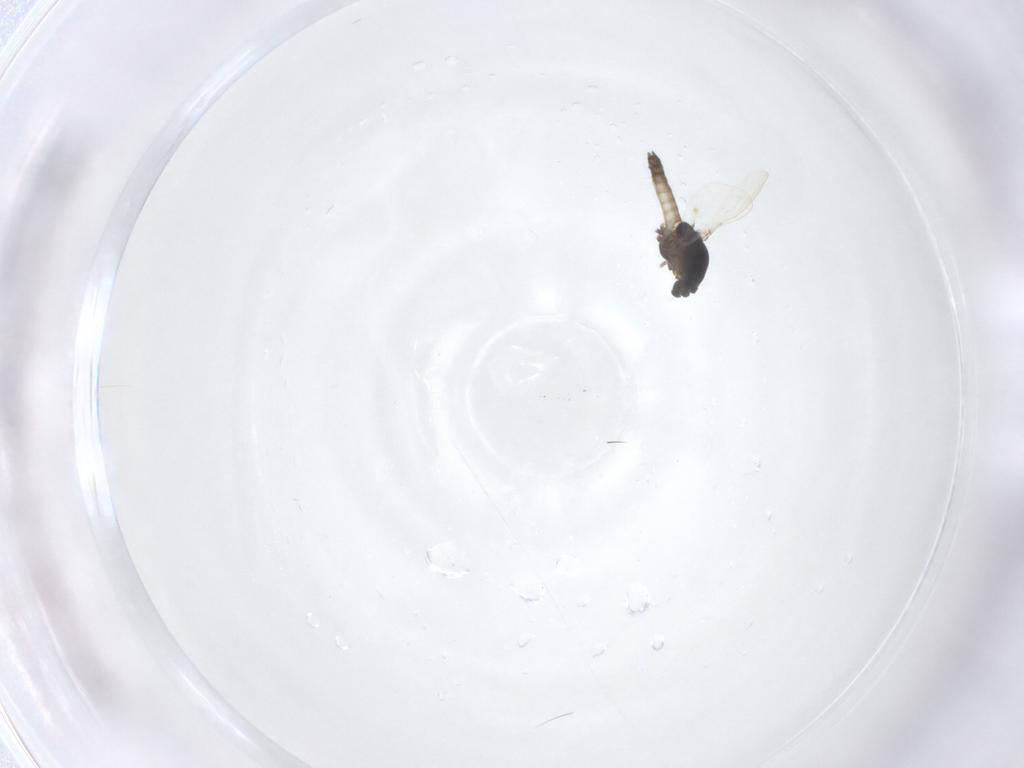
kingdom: Animalia
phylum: Arthropoda
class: Insecta
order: Diptera
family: Chironomidae
